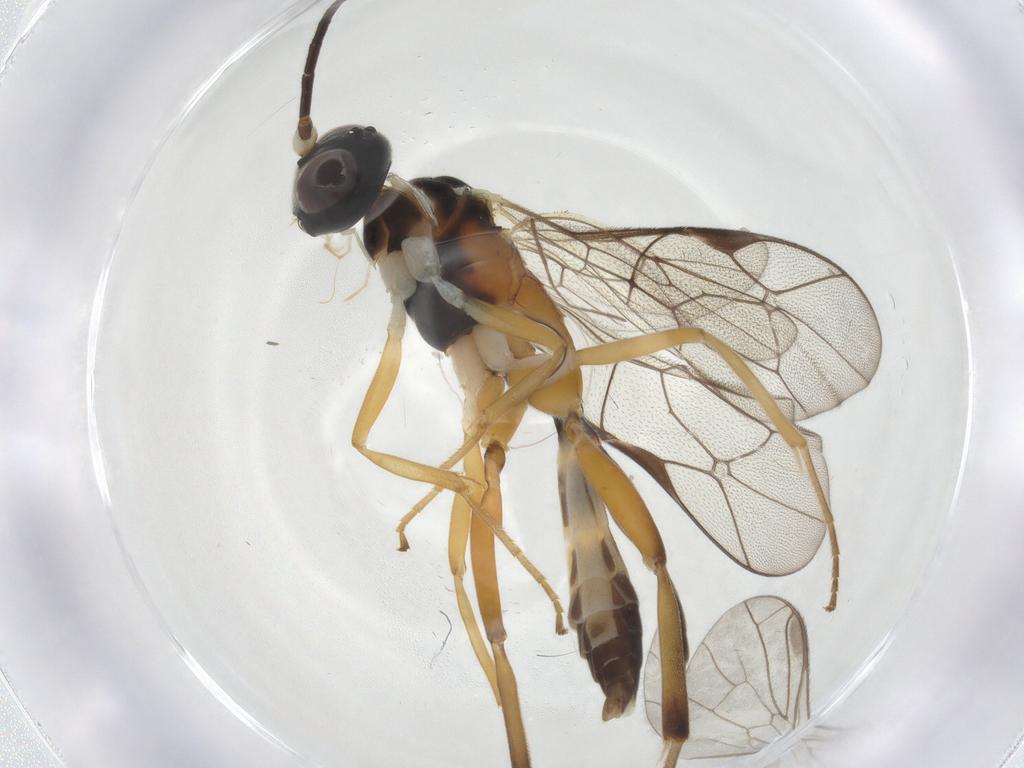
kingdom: Animalia
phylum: Arthropoda
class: Insecta
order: Hymenoptera
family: Ichneumonidae
